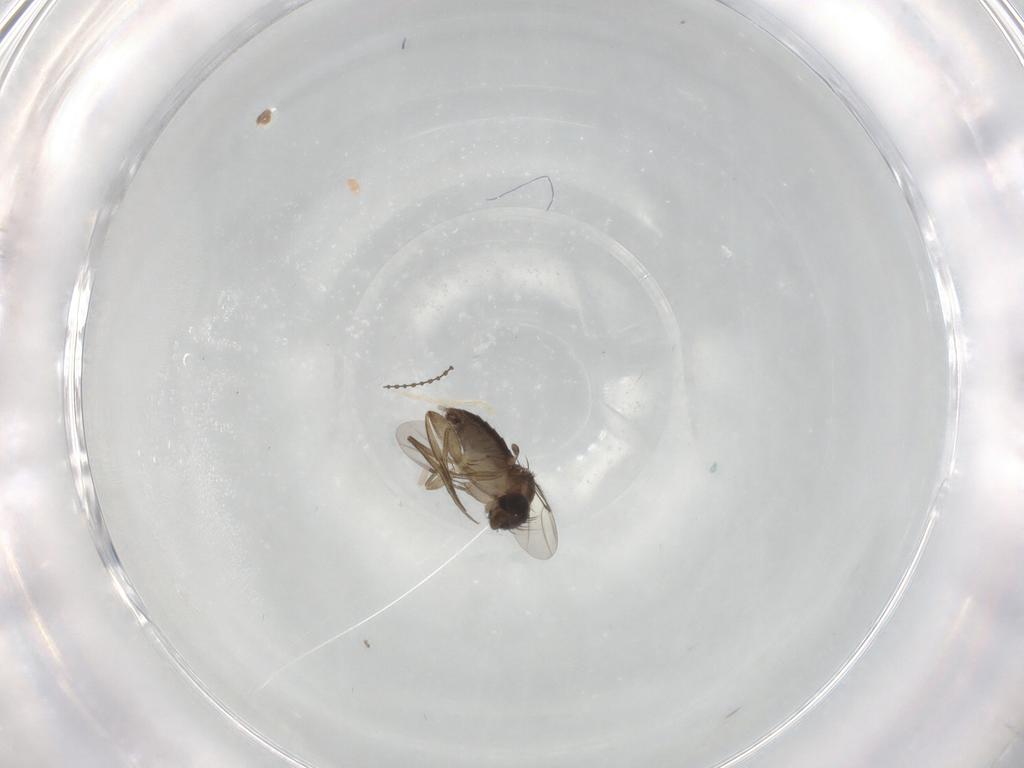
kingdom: Animalia
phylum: Arthropoda
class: Insecta
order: Diptera
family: Phoridae
